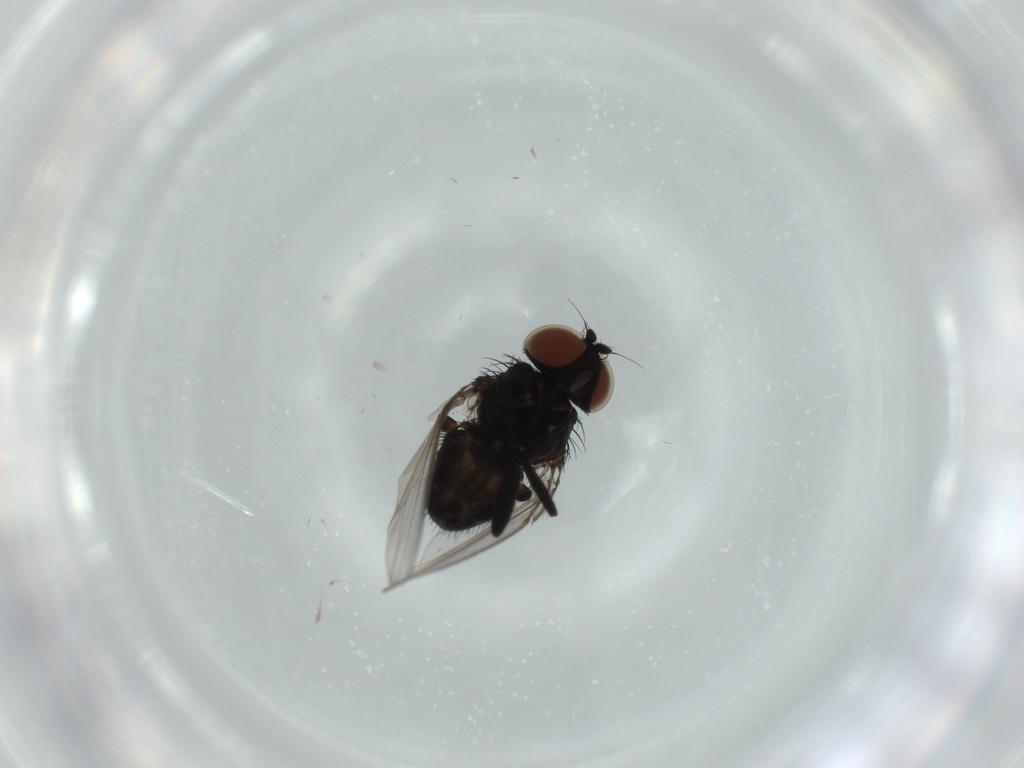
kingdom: Animalia
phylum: Arthropoda
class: Insecta
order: Diptera
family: Milichiidae
